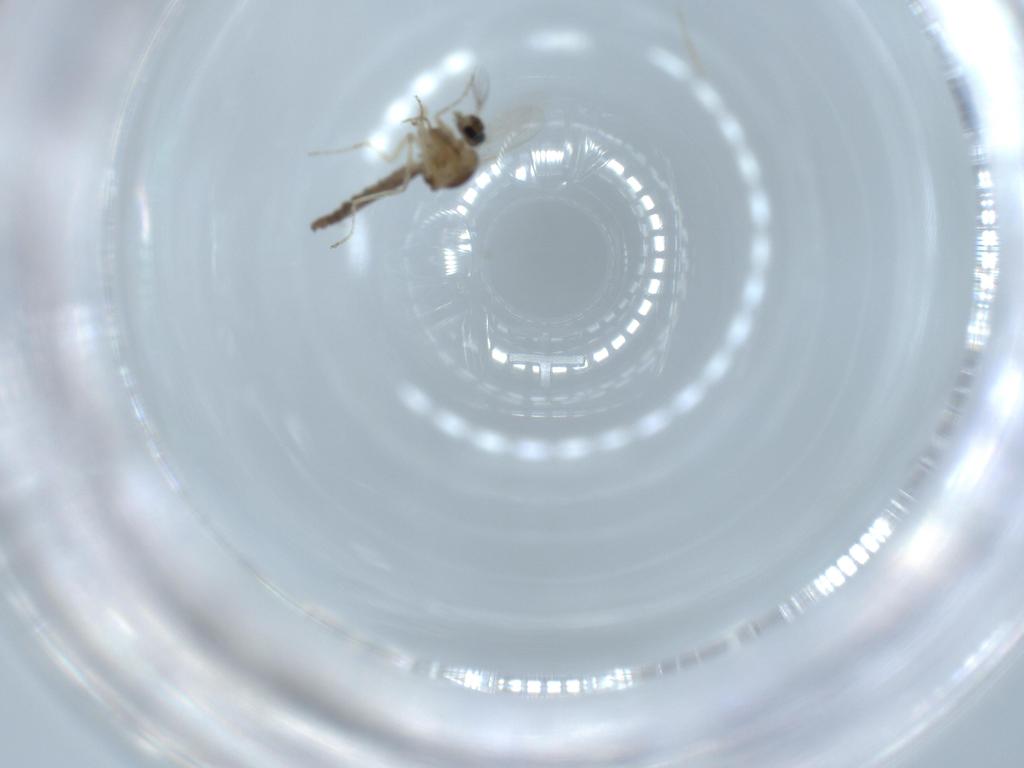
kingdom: Animalia
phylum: Arthropoda
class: Insecta
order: Diptera
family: Ceratopogonidae
